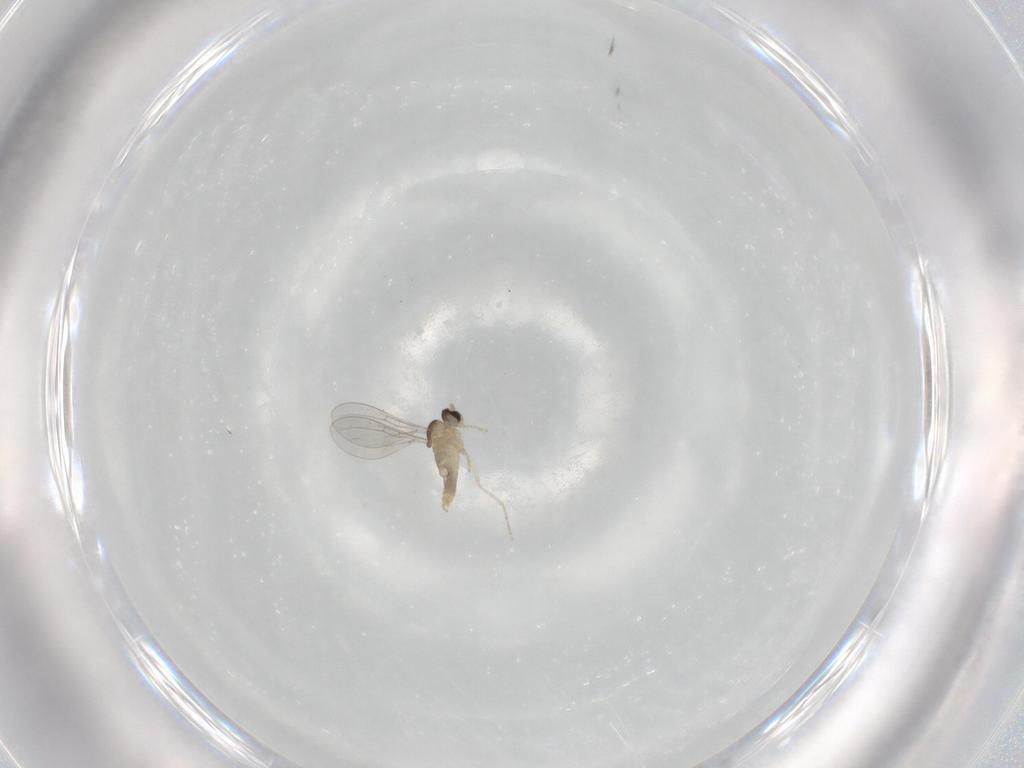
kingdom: Animalia
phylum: Arthropoda
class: Insecta
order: Diptera
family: Cecidomyiidae
